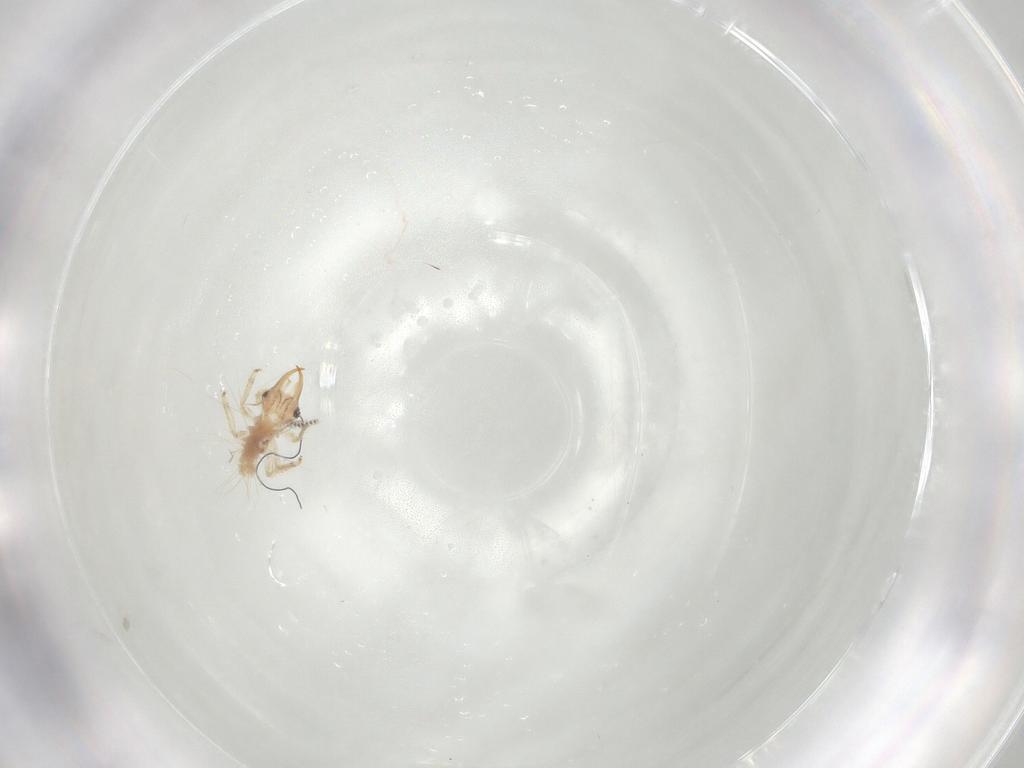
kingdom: Animalia
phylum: Arthropoda
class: Insecta
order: Neuroptera
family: Chrysopidae
